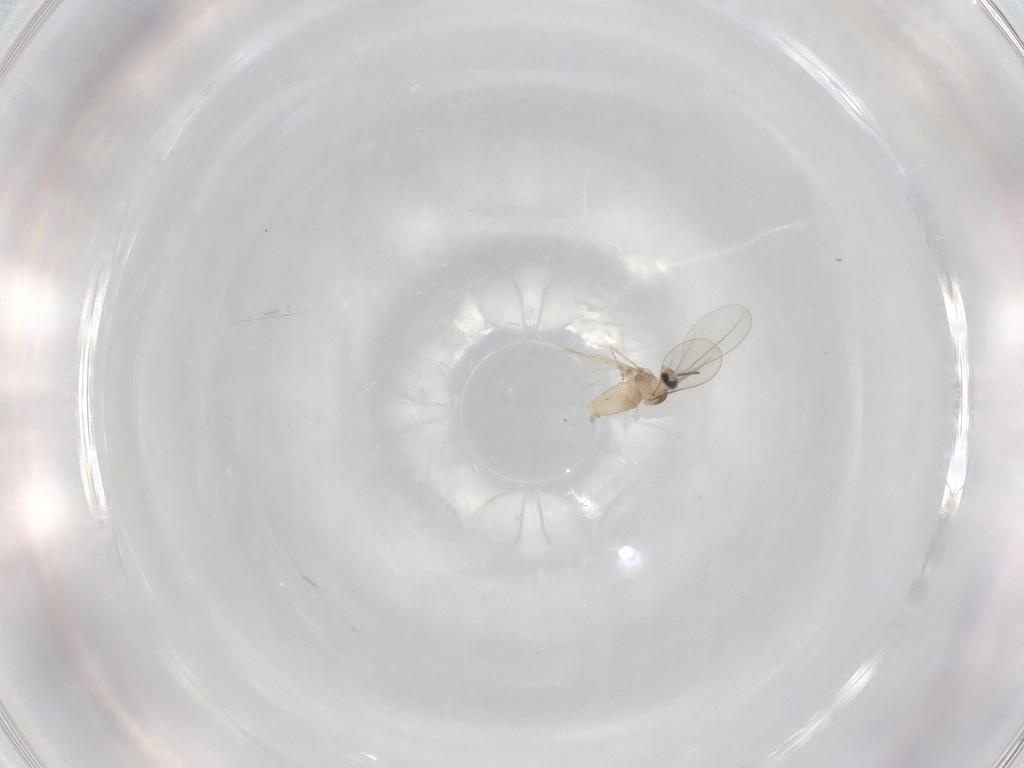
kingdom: Animalia
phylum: Arthropoda
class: Insecta
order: Diptera
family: Cecidomyiidae
